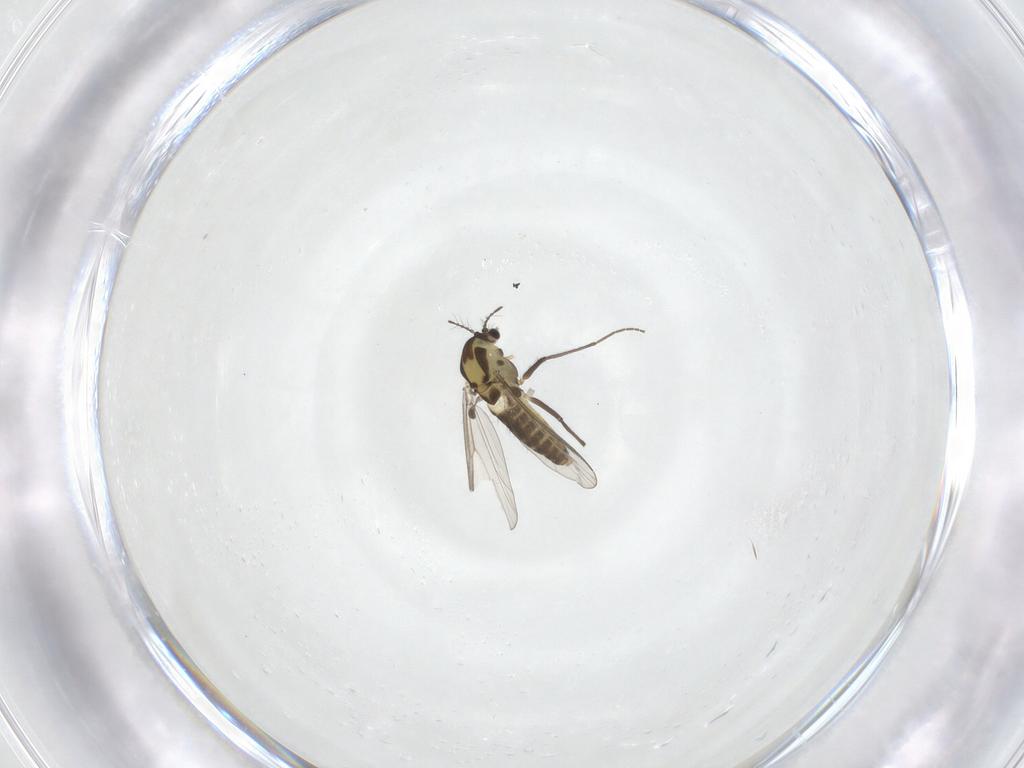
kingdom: Animalia
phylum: Arthropoda
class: Insecta
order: Diptera
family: Chironomidae
